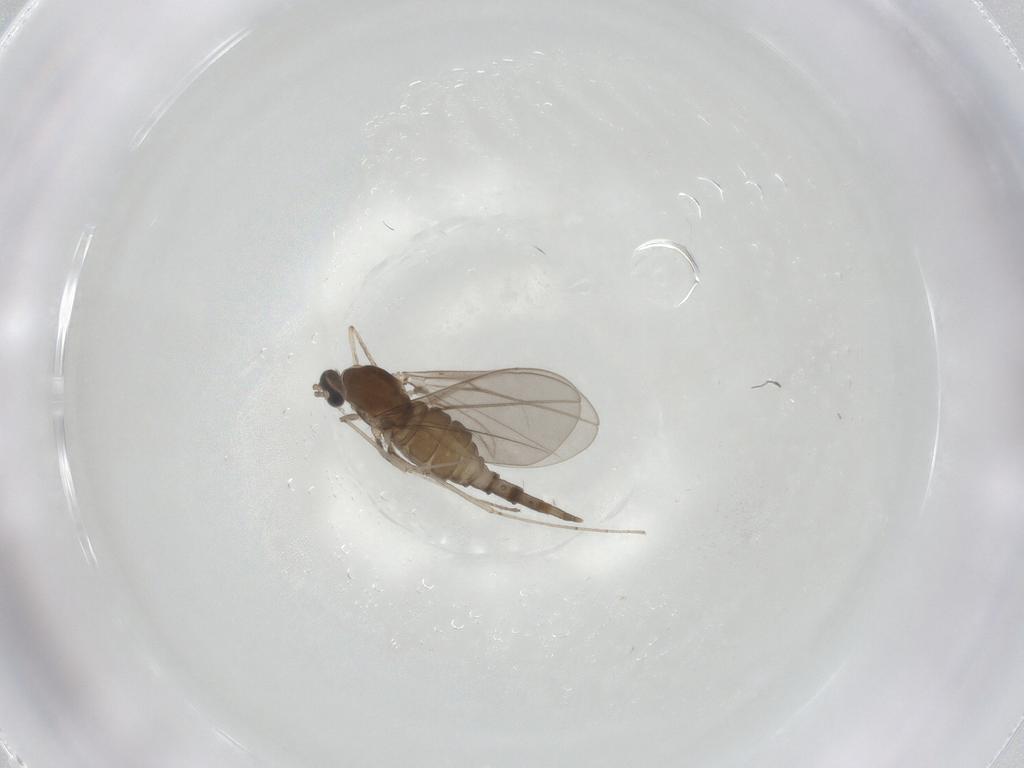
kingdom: Animalia
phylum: Arthropoda
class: Insecta
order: Diptera
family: Cecidomyiidae
